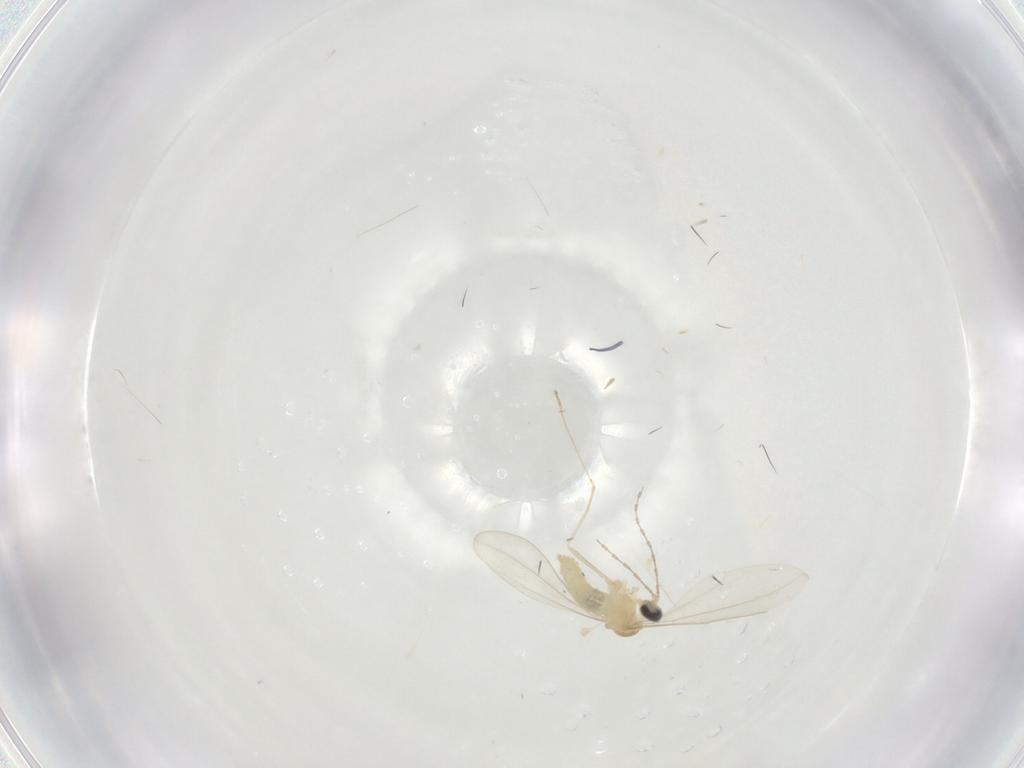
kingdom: Animalia
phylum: Arthropoda
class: Insecta
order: Diptera
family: Cecidomyiidae
